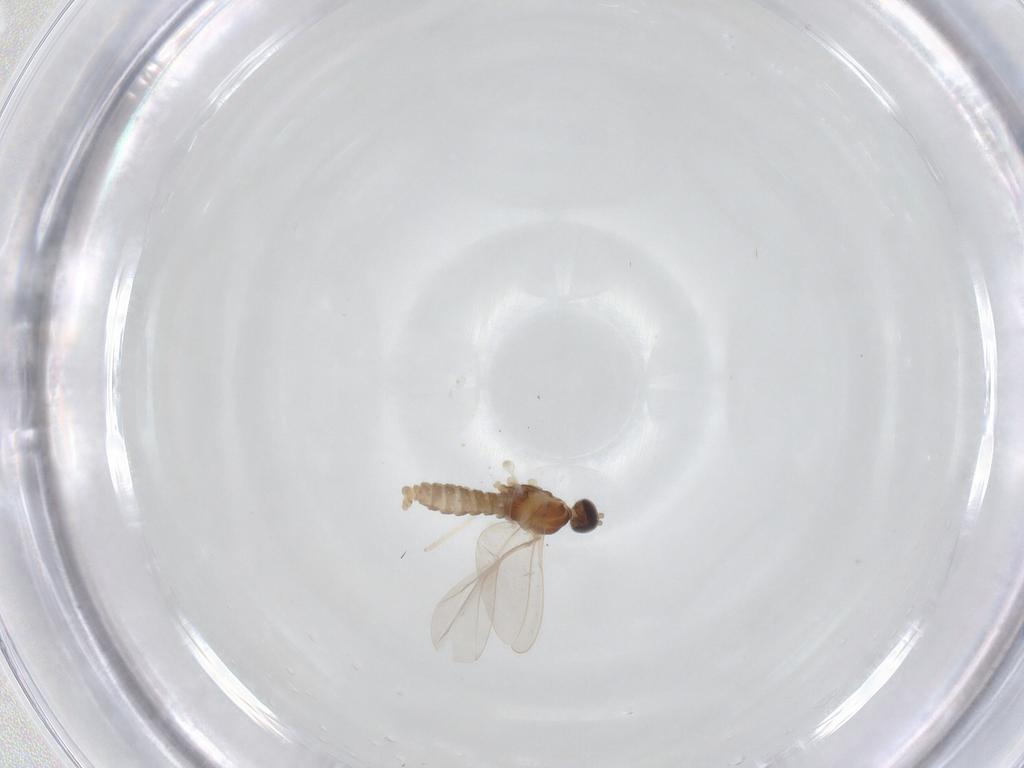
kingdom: Animalia
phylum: Arthropoda
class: Insecta
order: Diptera
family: Cecidomyiidae
